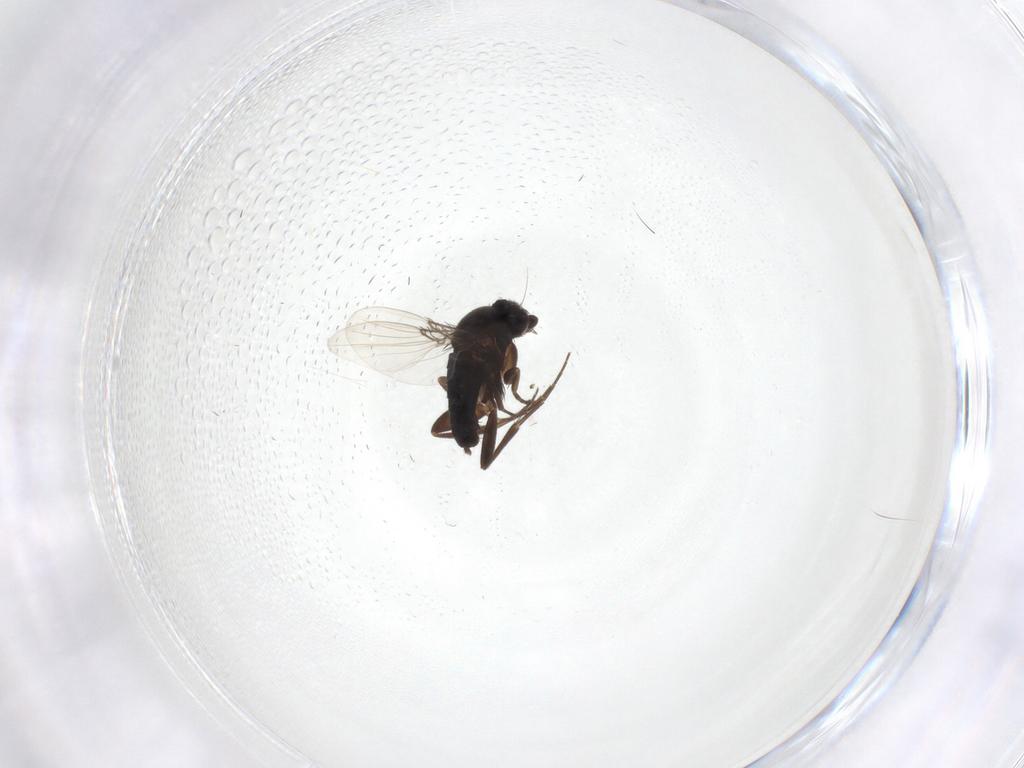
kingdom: Animalia
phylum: Arthropoda
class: Insecta
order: Diptera
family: Phoridae
